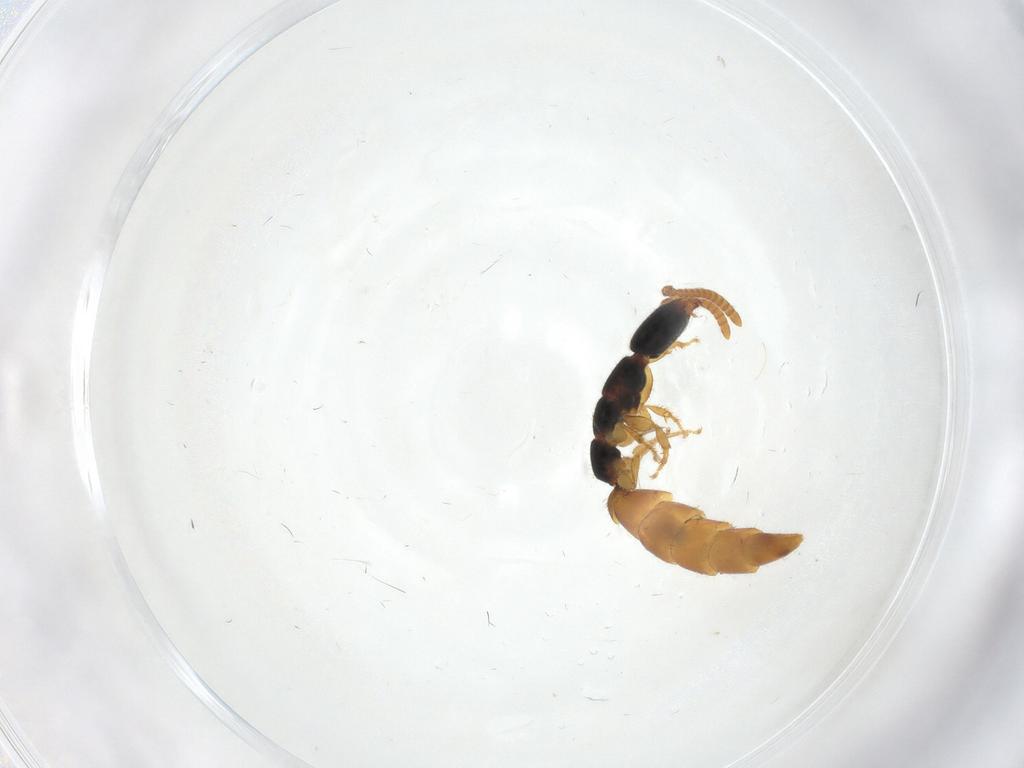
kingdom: Animalia
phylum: Arthropoda
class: Insecta
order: Hymenoptera
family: Bethylidae
